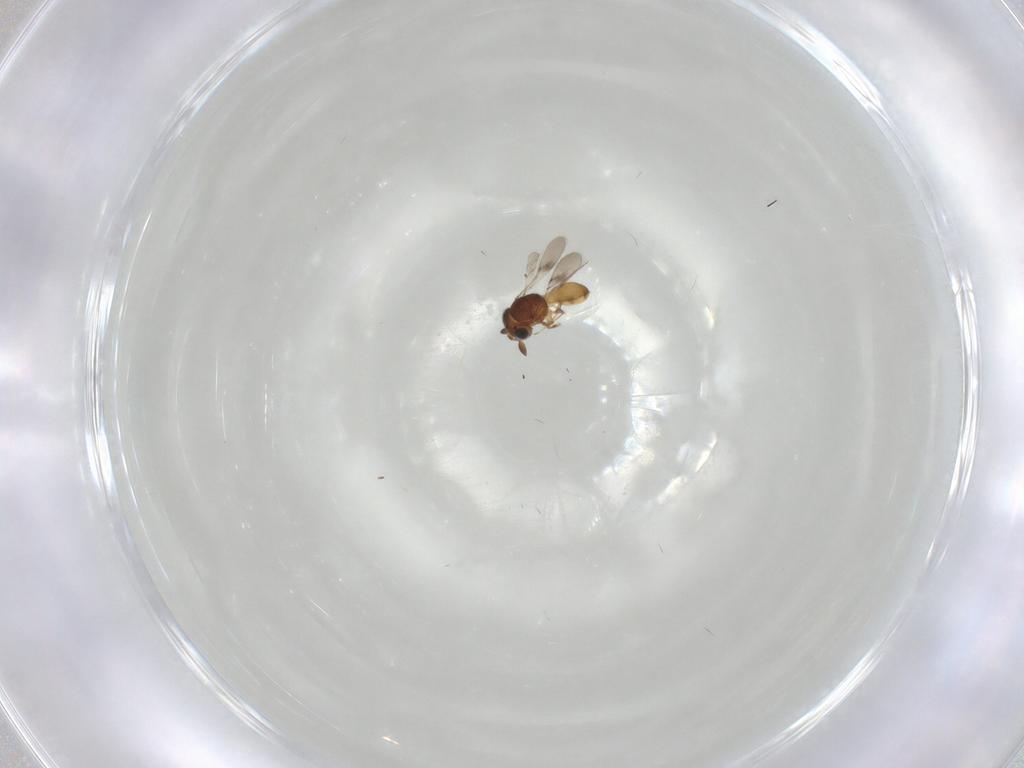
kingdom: Animalia
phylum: Arthropoda
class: Insecta
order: Hymenoptera
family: Scelionidae
